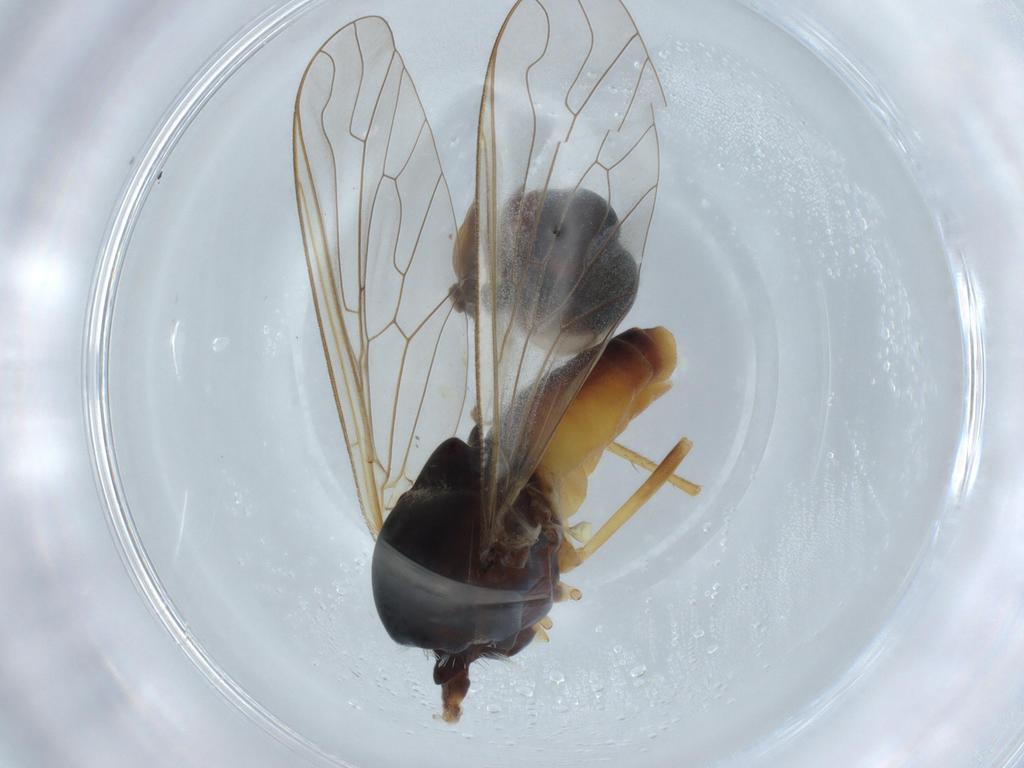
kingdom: Animalia
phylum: Arthropoda
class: Insecta
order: Diptera
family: Bombyliidae
